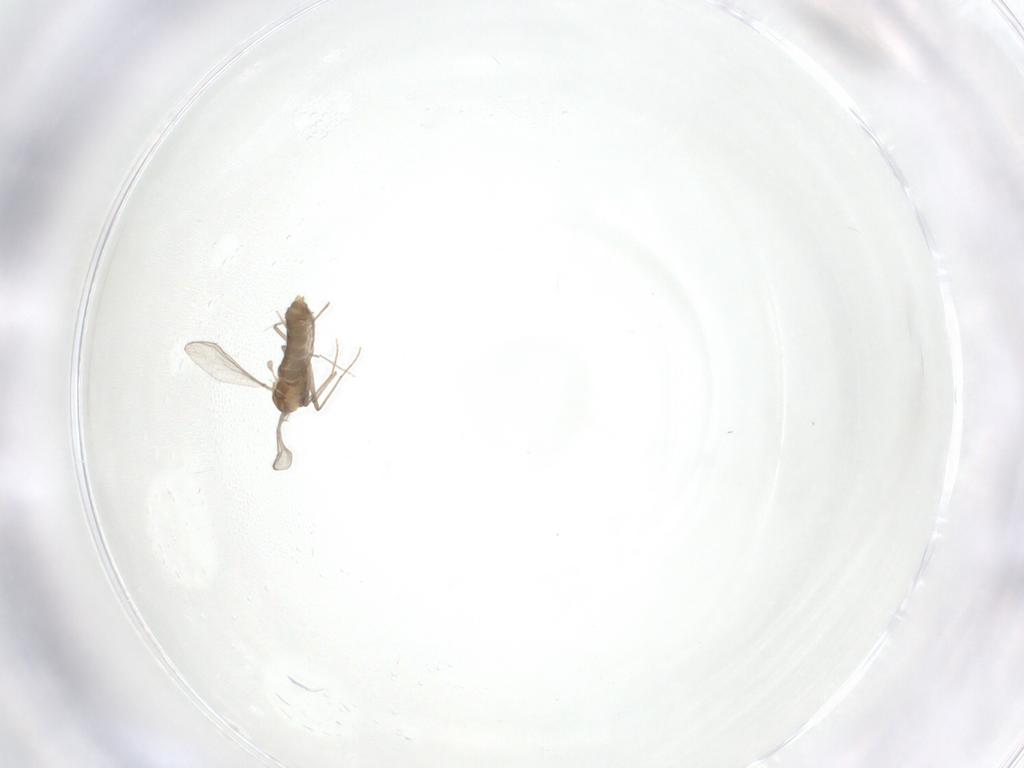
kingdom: Animalia
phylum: Arthropoda
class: Insecta
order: Diptera
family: Chironomidae
